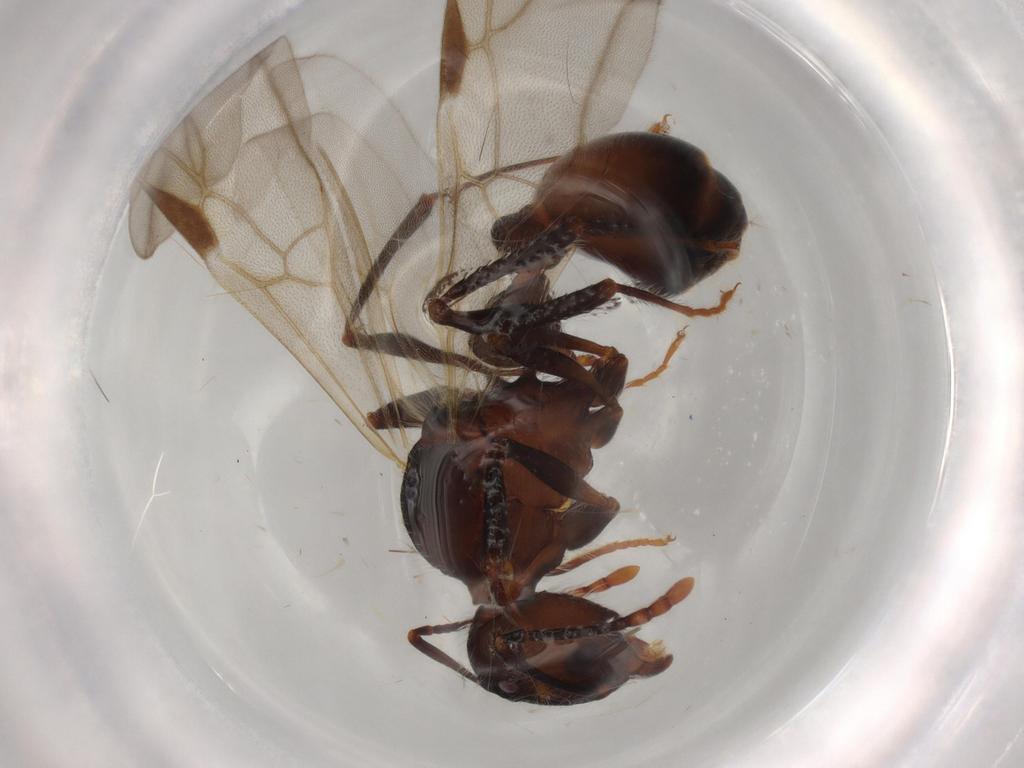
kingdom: Animalia
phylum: Arthropoda
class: Insecta
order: Hymenoptera
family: Formicidae
